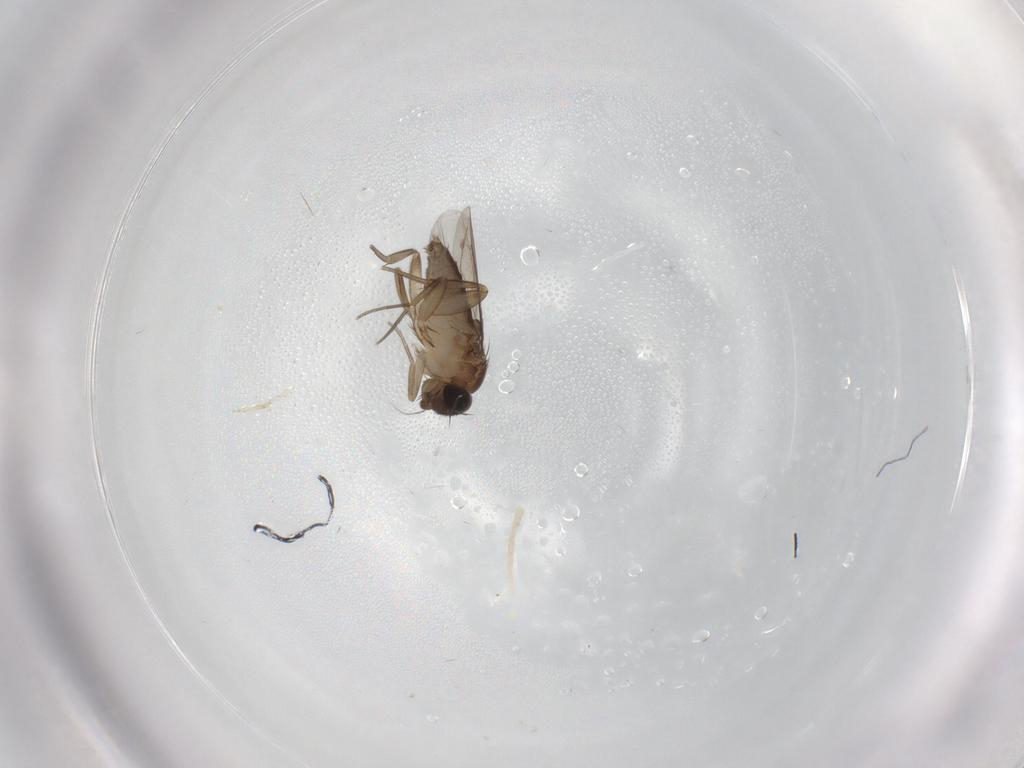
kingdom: Animalia
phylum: Arthropoda
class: Insecta
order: Diptera
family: Phoridae
